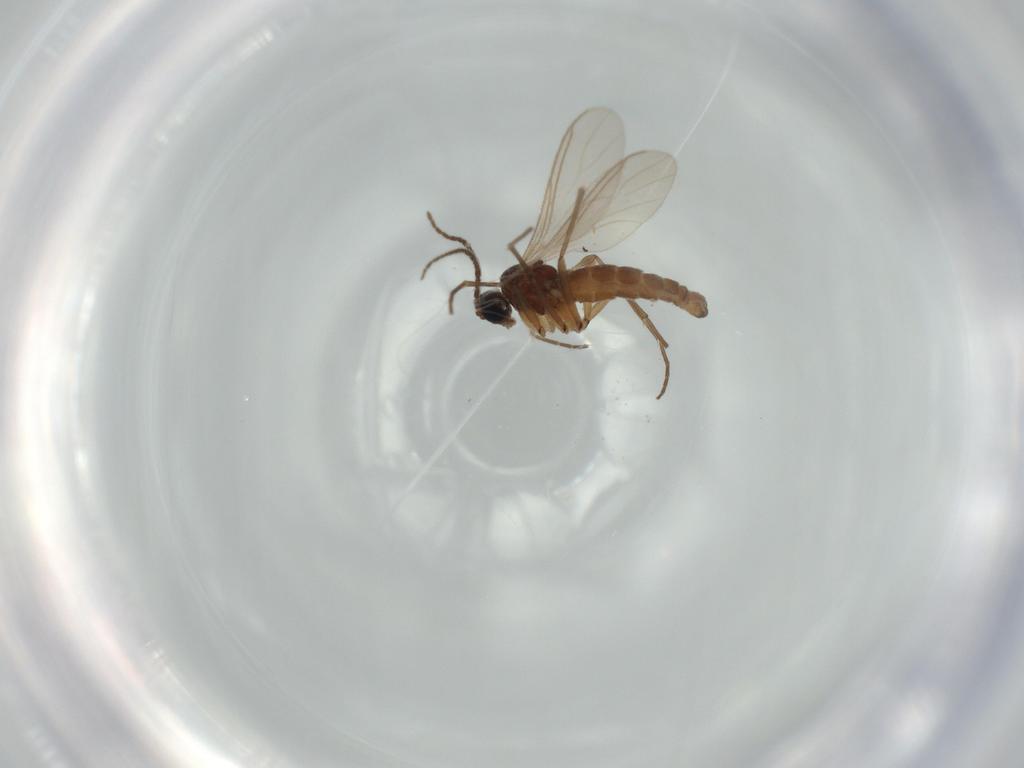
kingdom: Animalia
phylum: Arthropoda
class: Insecta
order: Diptera
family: Sciaridae
